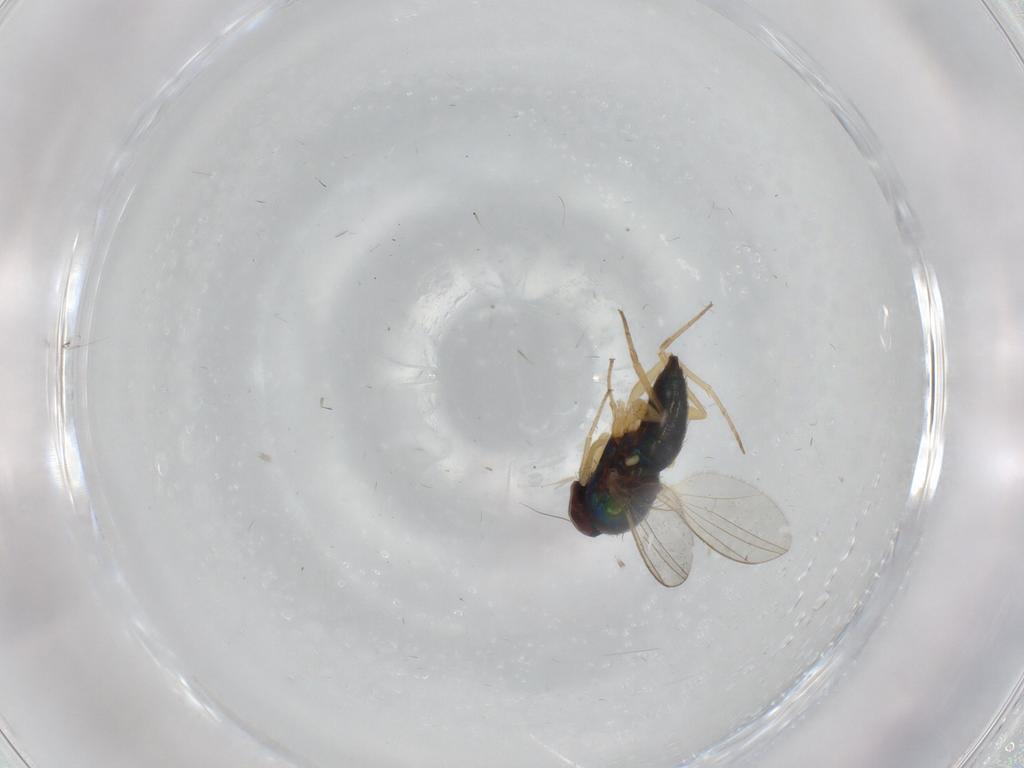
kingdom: Animalia
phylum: Arthropoda
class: Insecta
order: Diptera
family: Dolichopodidae
